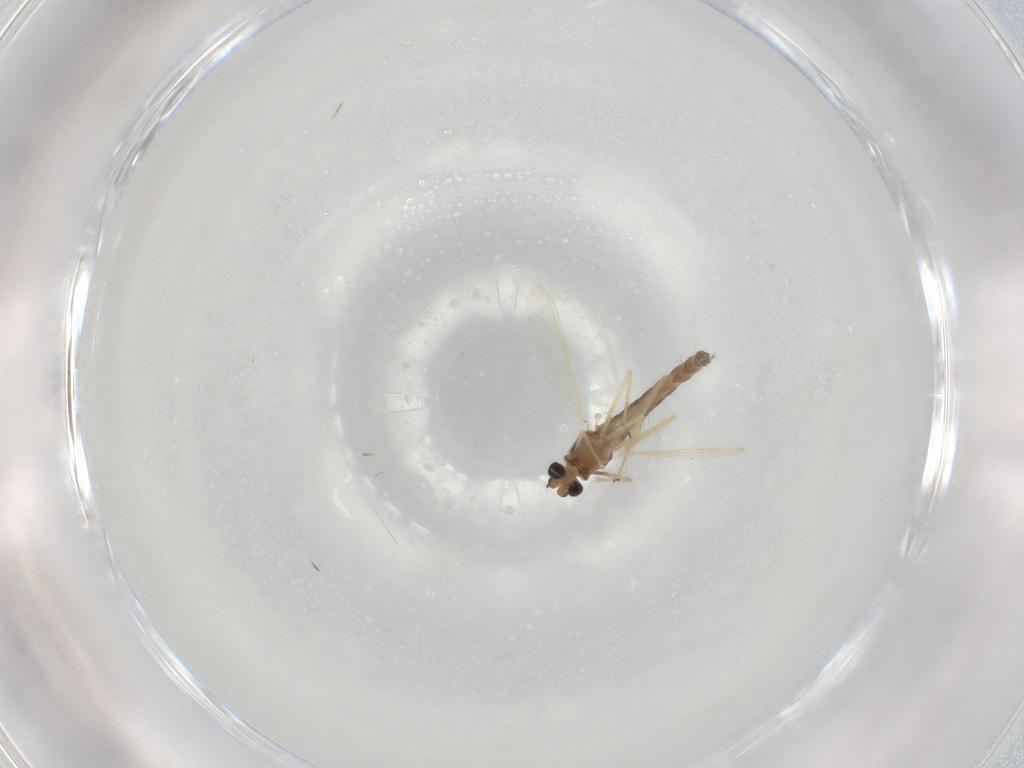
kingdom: Animalia
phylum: Arthropoda
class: Insecta
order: Diptera
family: Chironomidae
